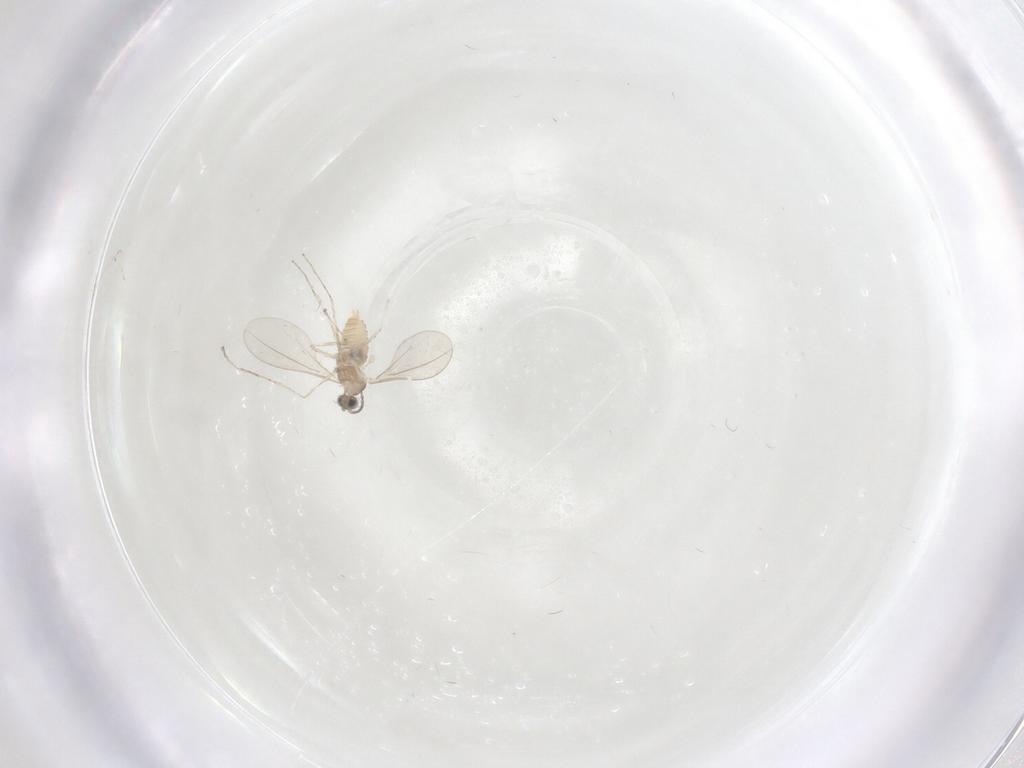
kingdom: Animalia
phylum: Arthropoda
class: Insecta
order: Diptera
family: Cecidomyiidae
